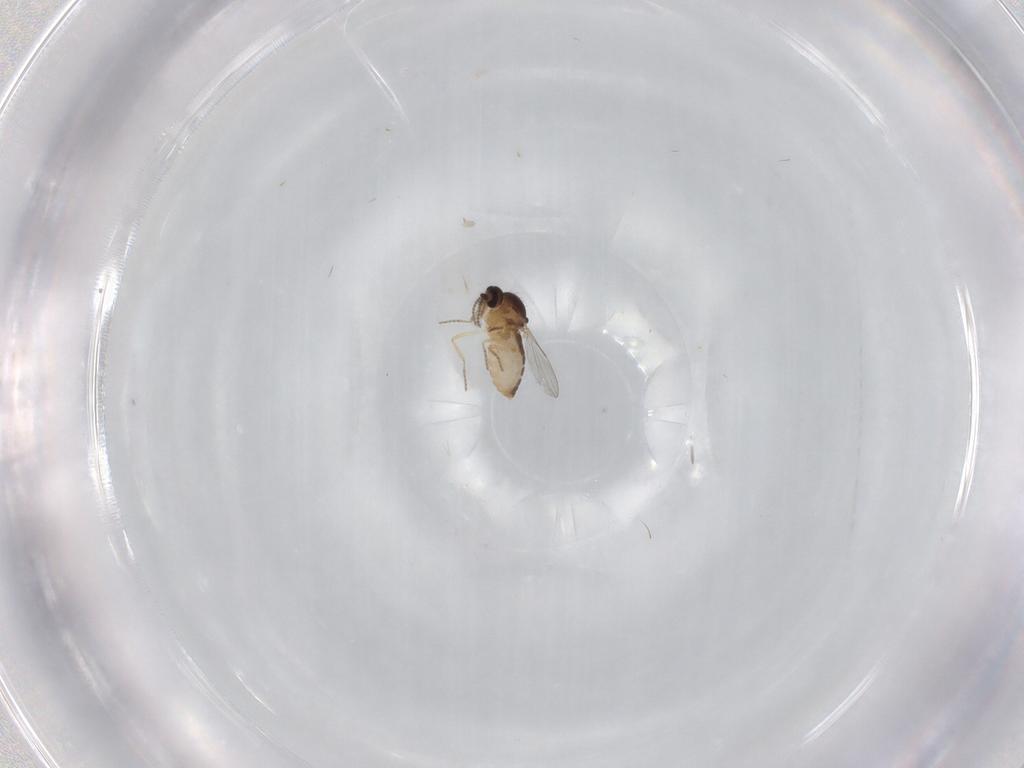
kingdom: Animalia
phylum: Arthropoda
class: Insecta
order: Diptera
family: Ceratopogonidae
